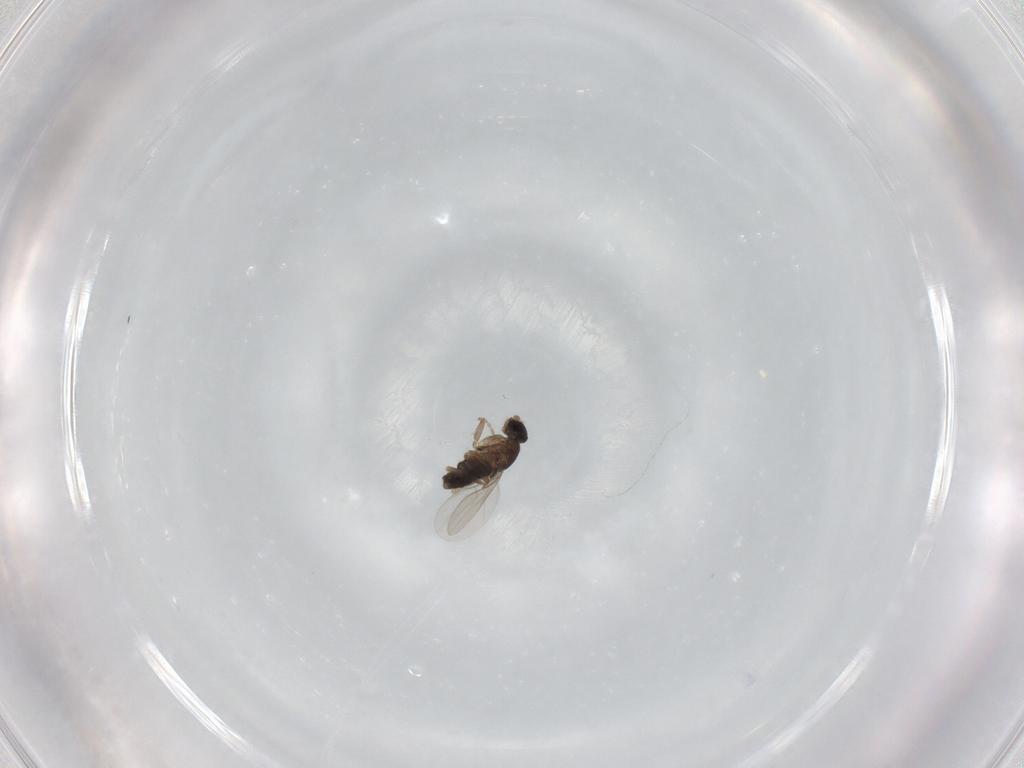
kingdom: Animalia
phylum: Arthropoda
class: Insecta
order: Diptera
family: Phoridae
